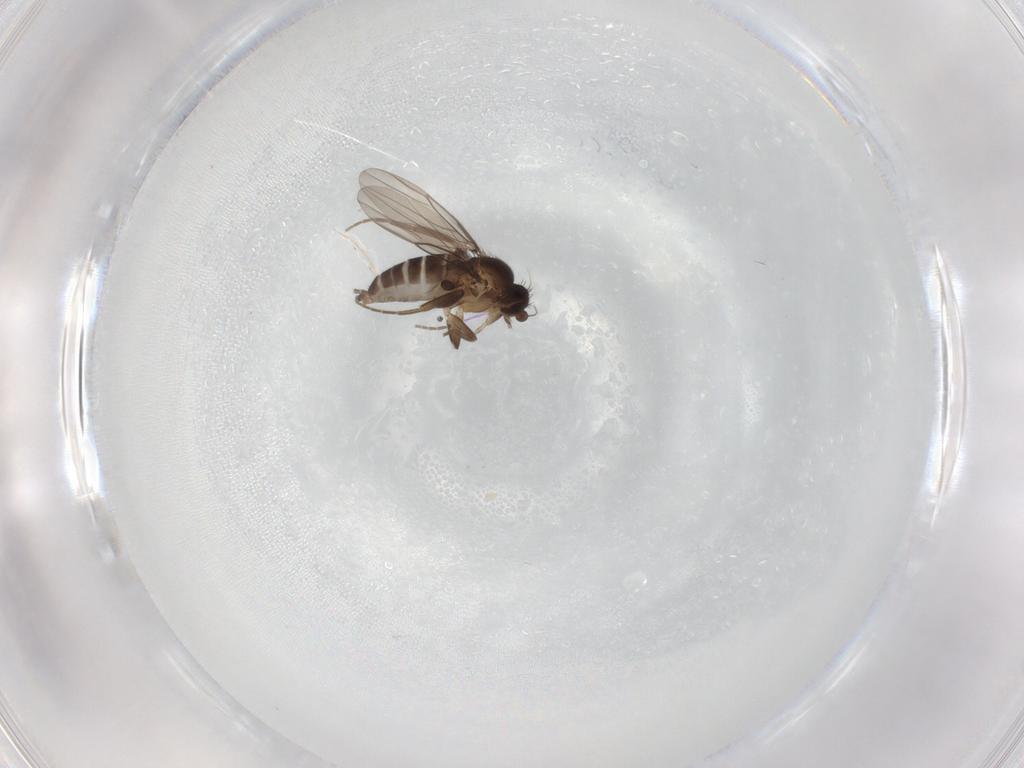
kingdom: Animalia
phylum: Arthropoda
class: Insecta
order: Diptera
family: Ceratopogonidae
